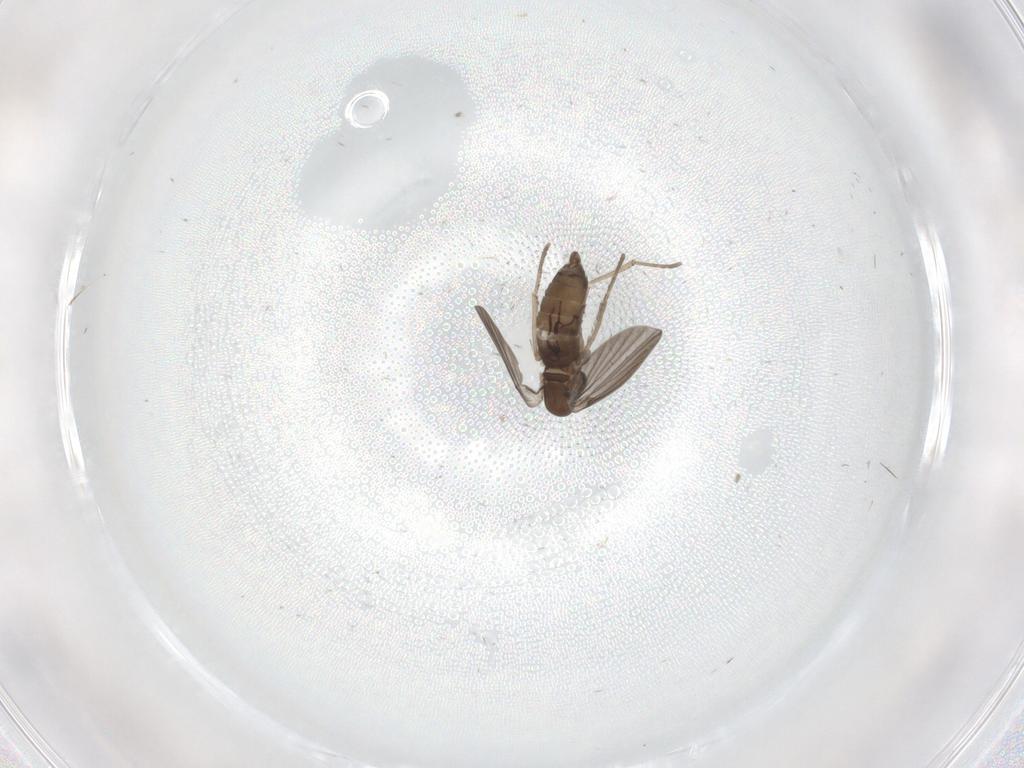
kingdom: Animalia
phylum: Arthropoda
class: Insecta
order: Diptera
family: Psychodidae
